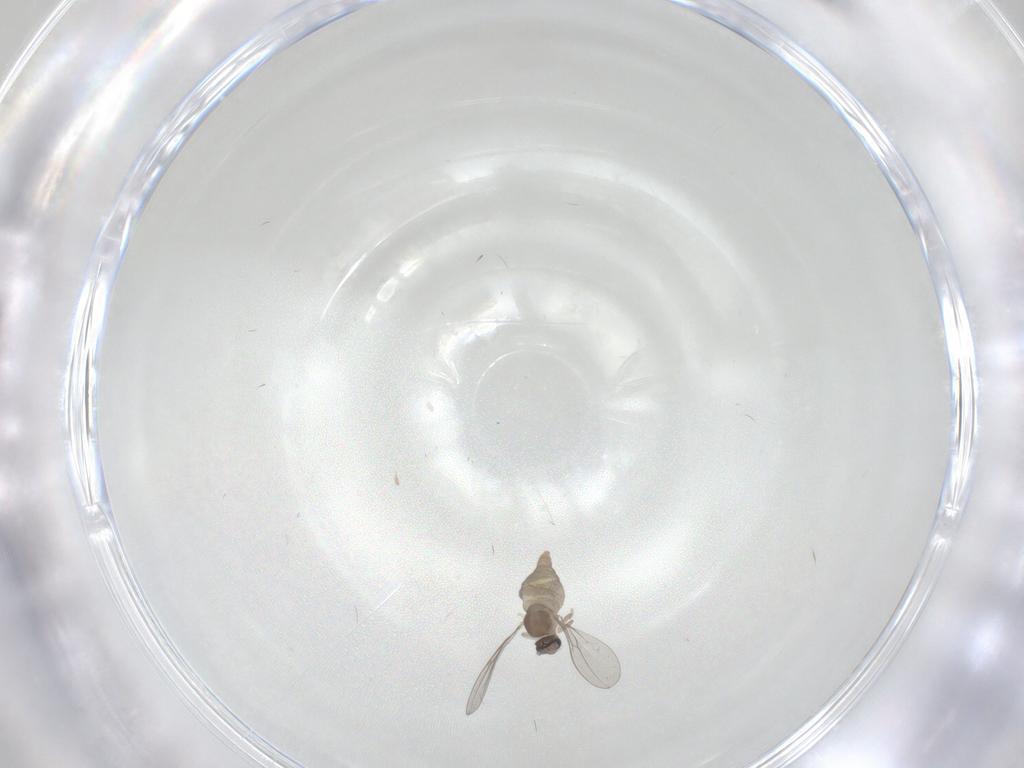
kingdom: Animalia
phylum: Arthropoda
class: Insecta
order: Diptera
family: Cecidomyiidae
